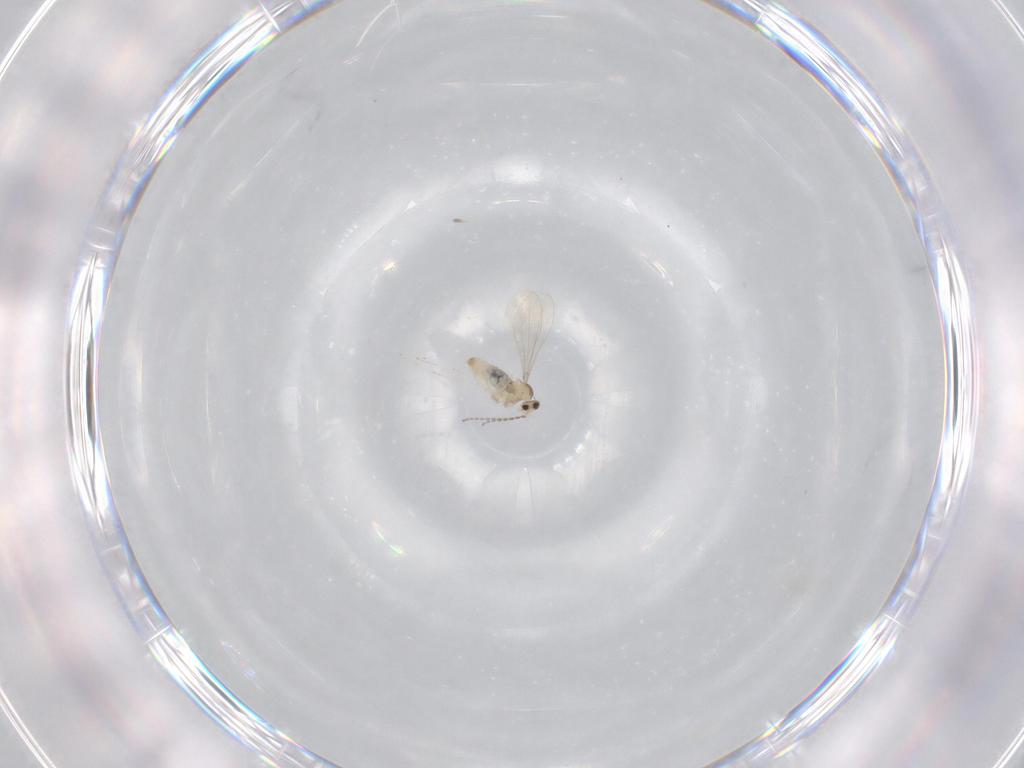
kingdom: Animalia
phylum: Arthropoda
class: Insecta
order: Diptera
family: Cecidomyiidae
